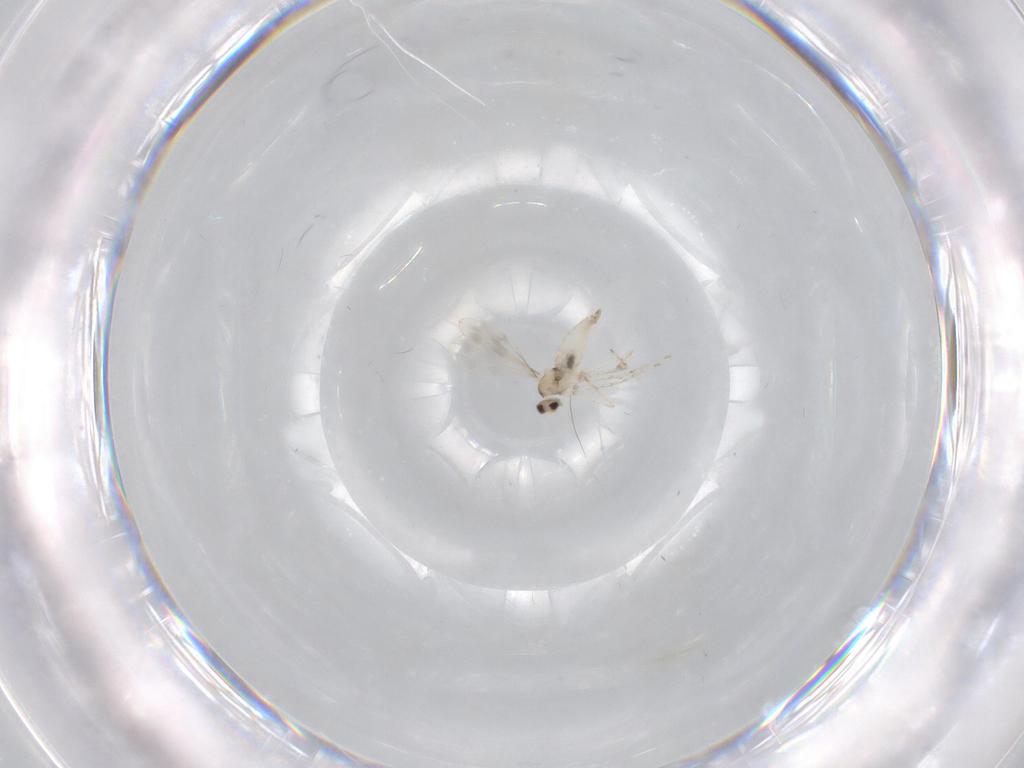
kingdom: Animalia
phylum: Arthropoda
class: Insecta
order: Diptera
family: Cecidomyiidae
